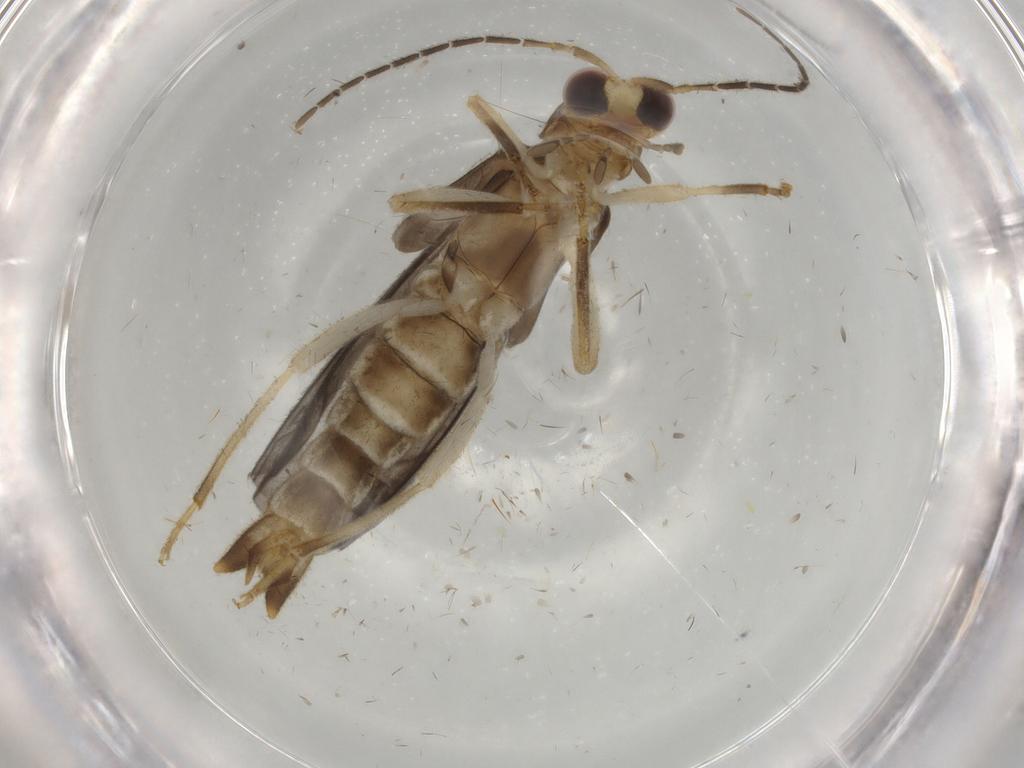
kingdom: Animalia
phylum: Arthropoda
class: Insecta
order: Coleoptera
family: Cantharidae
